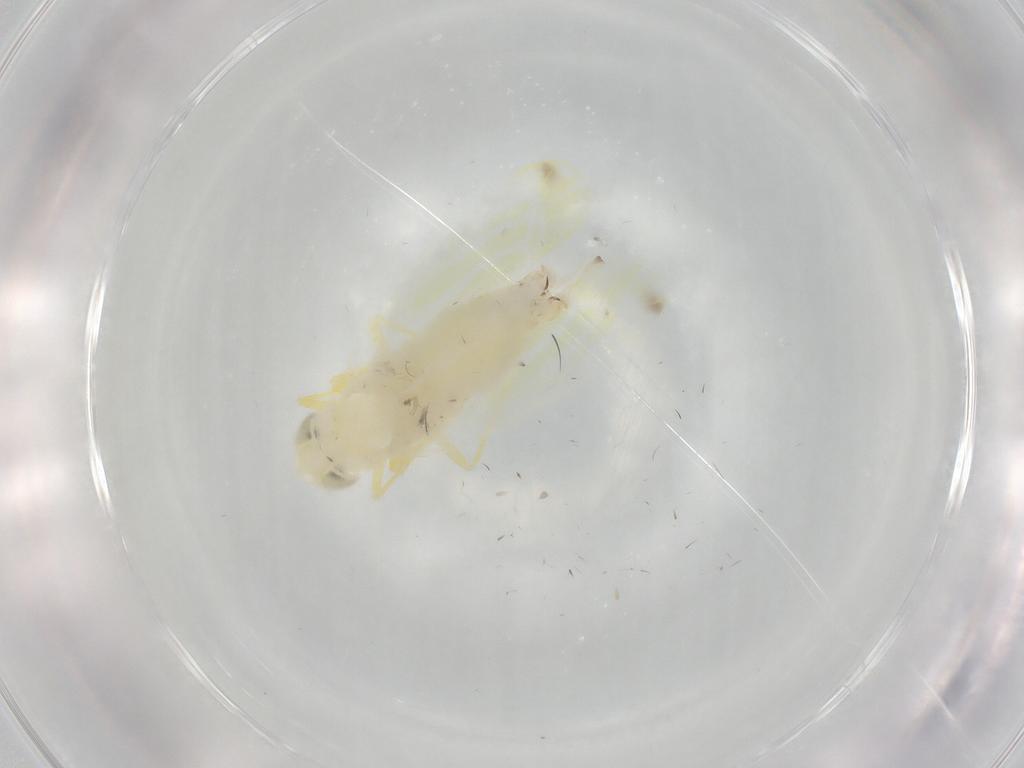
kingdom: Animalia
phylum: Arthropoda
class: Insecta
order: Hemiptera
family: Cicadellidae
